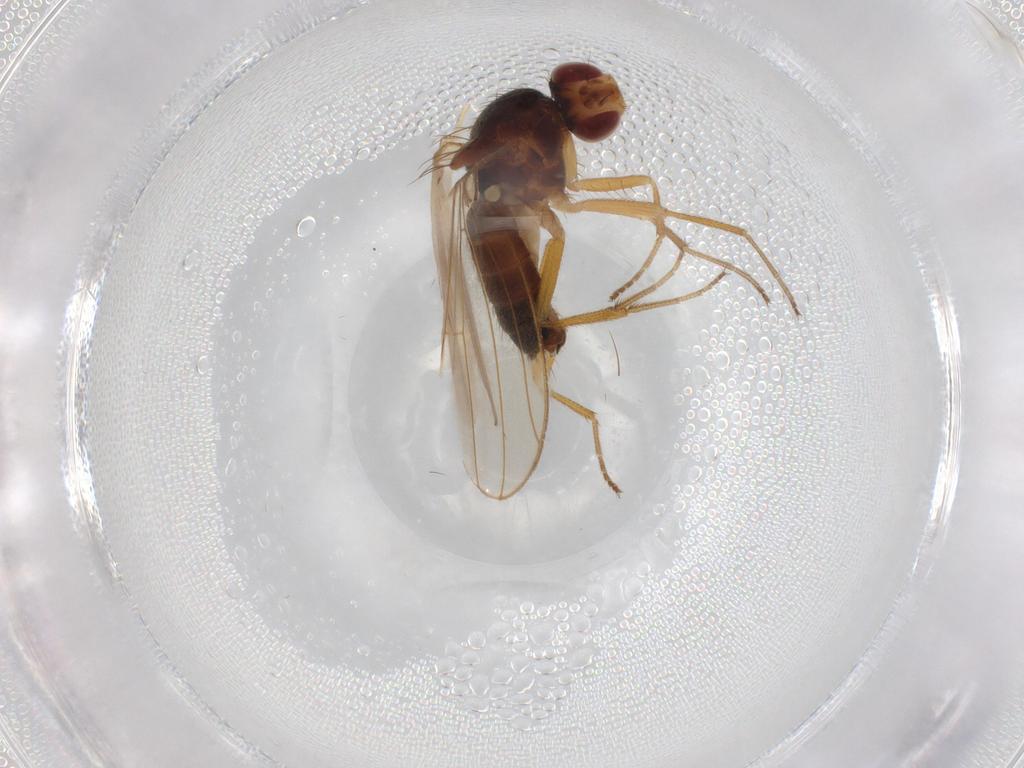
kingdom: Animalia
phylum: Arthropoda
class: Insecta
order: Diptera
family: Drosophilidae
